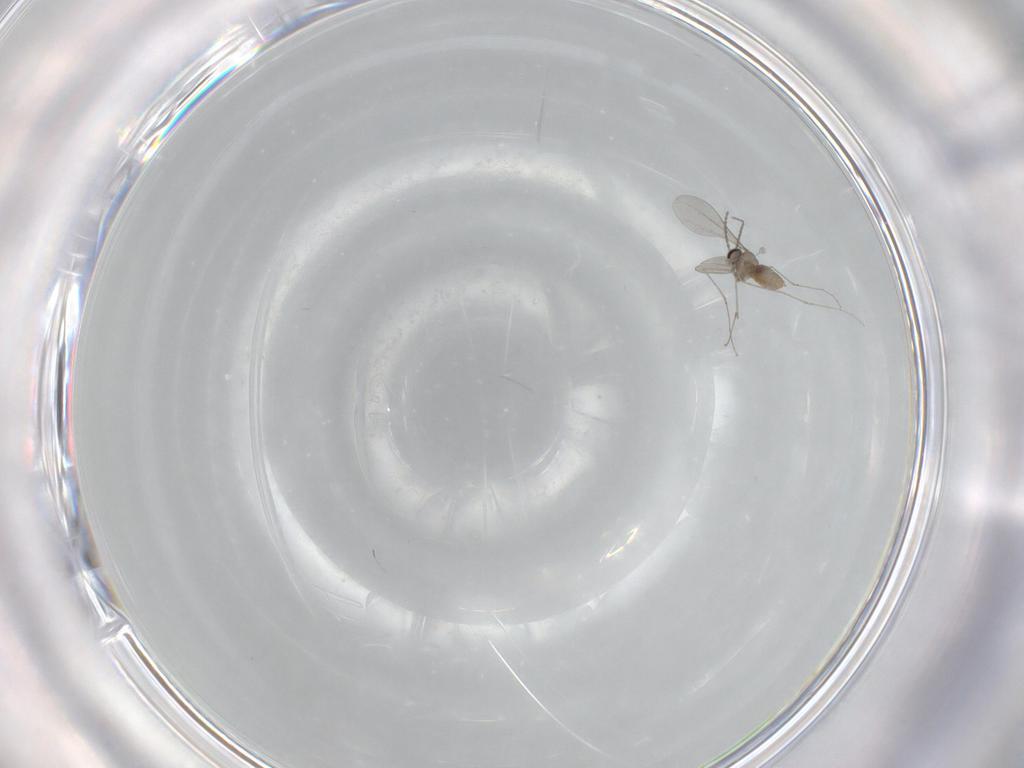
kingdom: Animalia
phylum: Arthropoda
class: Insecta
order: Diptera
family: Cecidomyiidae
